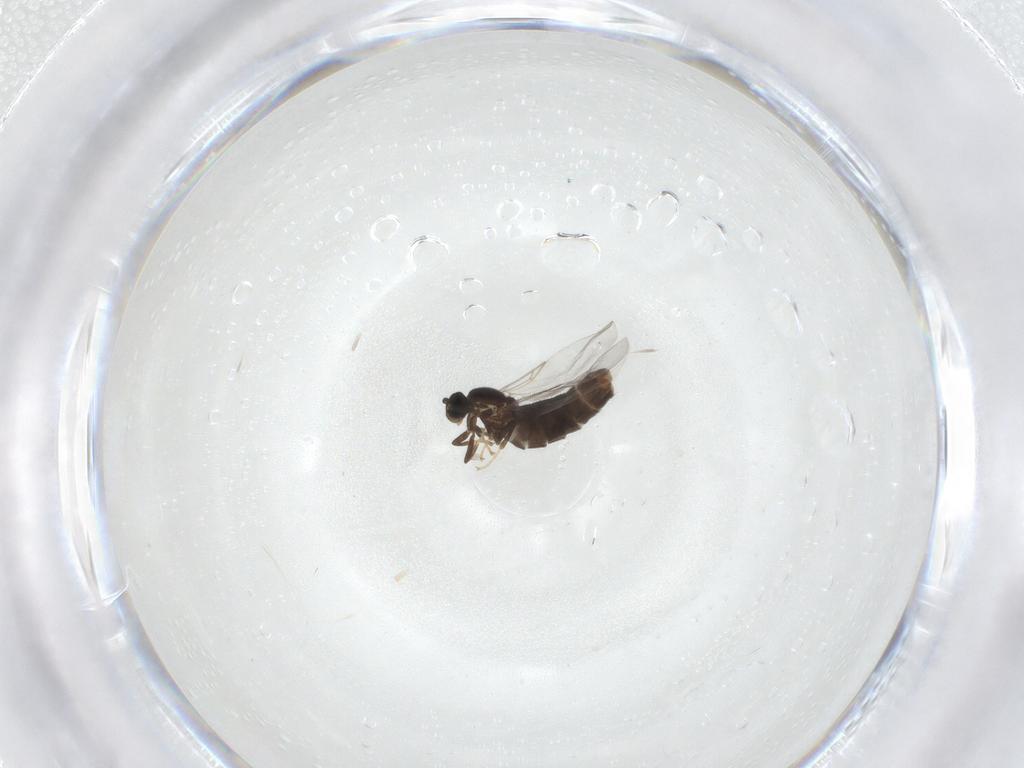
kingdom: Animalia
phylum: Arthropoda
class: Insecta
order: Diptera
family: Scatopsidae
